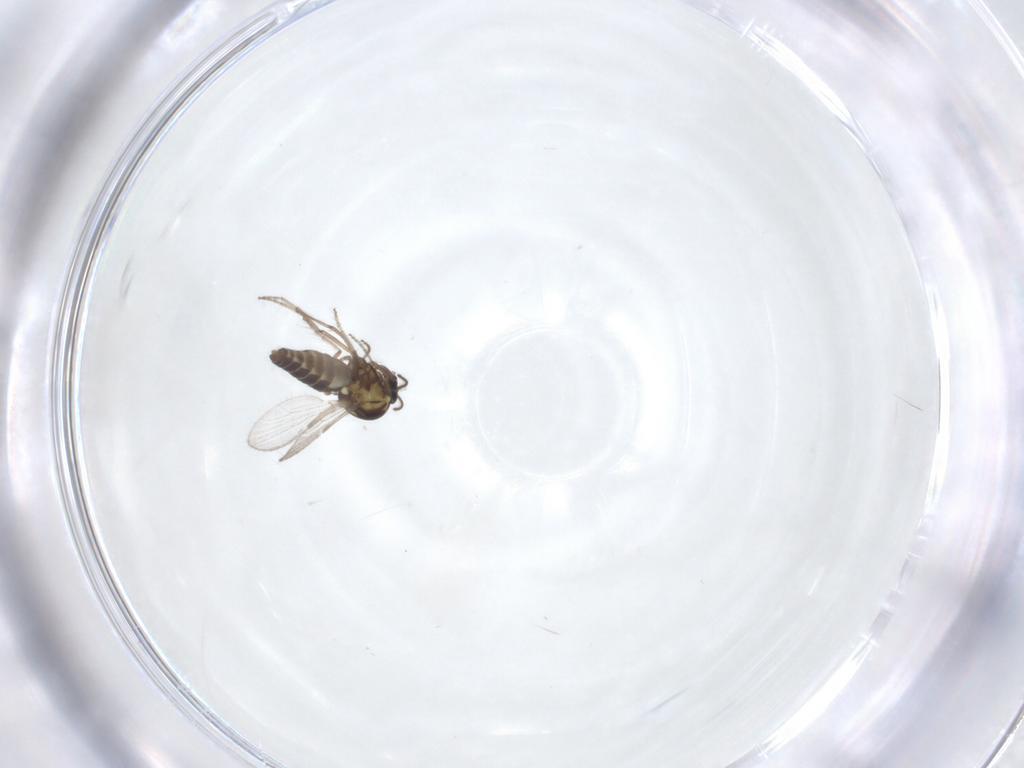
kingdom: Animalia
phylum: Arthropoda
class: Insecta
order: Diptera
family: Ceratopogonidae
